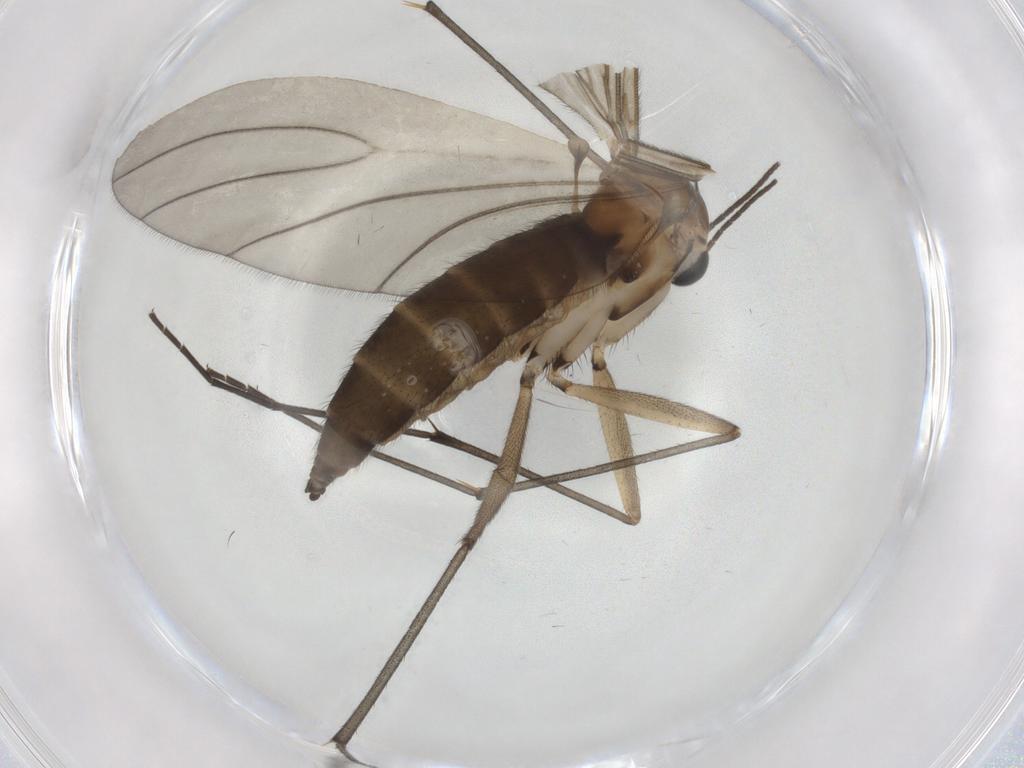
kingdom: Animalia
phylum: Arthropoda
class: Insecta
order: Diptera
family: Sciaridae
